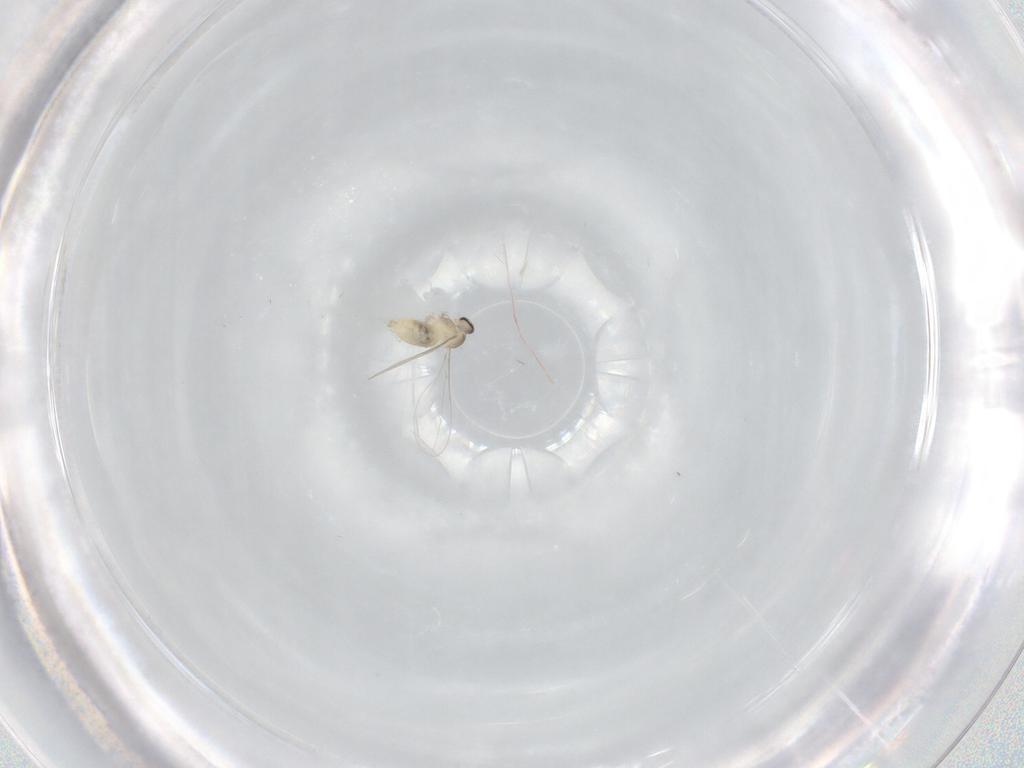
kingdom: Animalia
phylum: Arthropoda
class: Insecta
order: Diptera
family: Cecidomyiidae
